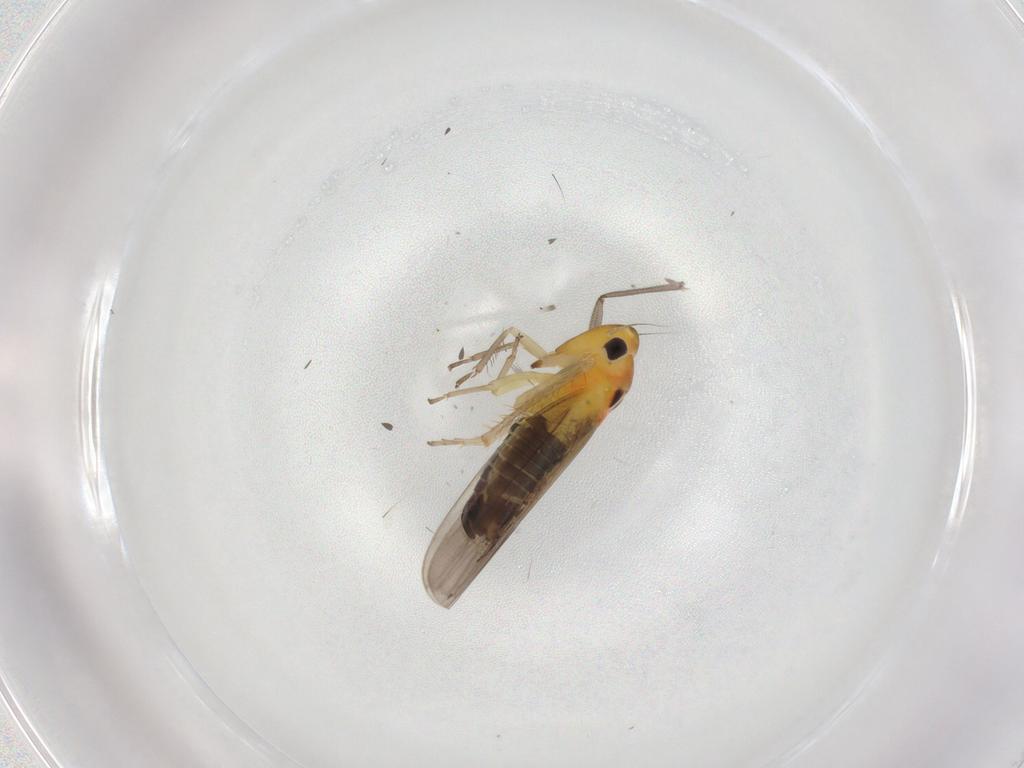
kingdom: Animalia
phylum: Arthropoda
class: Insecta
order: Hemiptera
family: Cicadellidae
